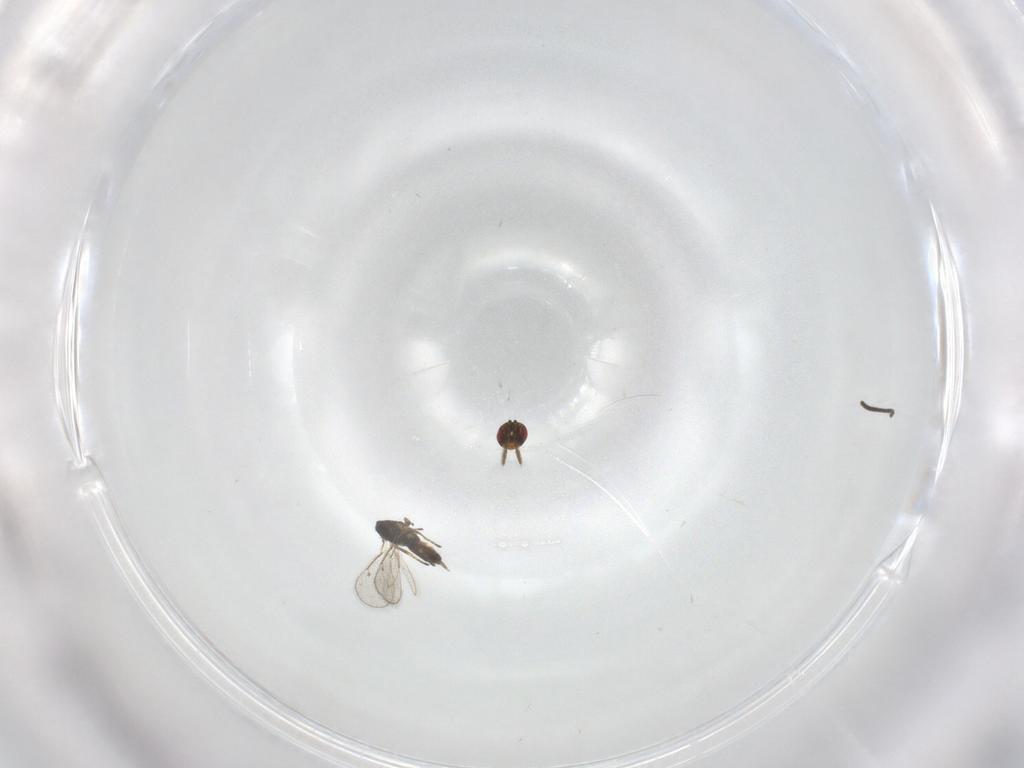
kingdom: Animalia
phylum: Arthropoda
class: Insecta
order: Hymenoptera
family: Eulophidae
